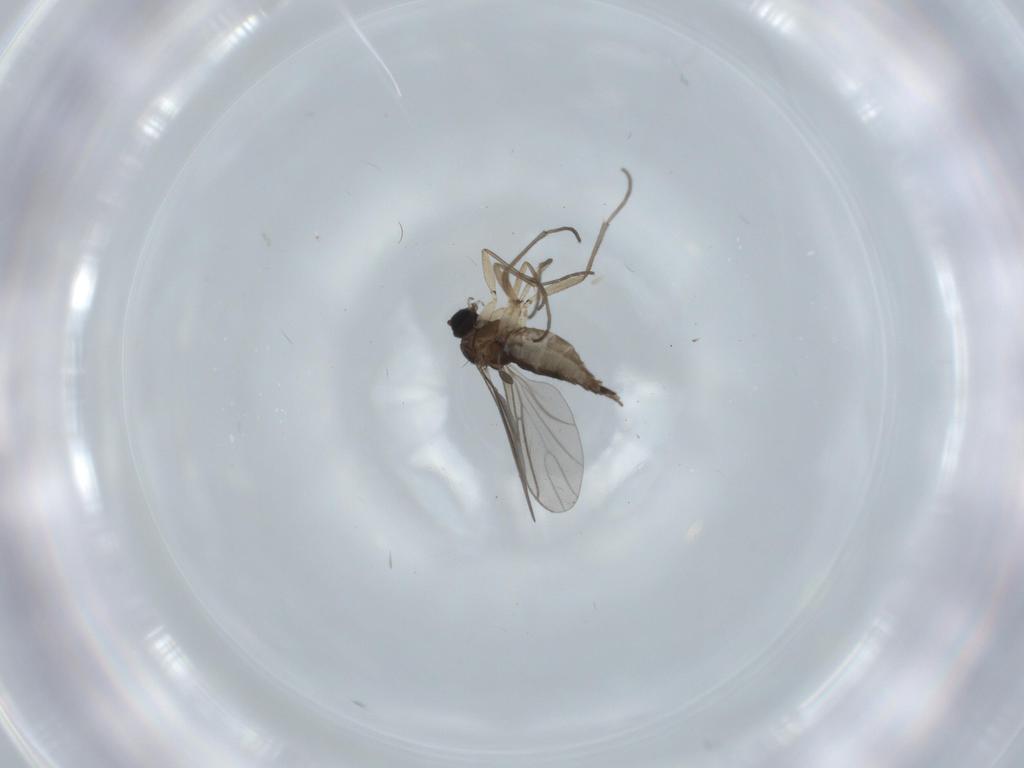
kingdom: Animalia
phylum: Arthropoda
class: Insecta
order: Diptera
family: Sciaridae
